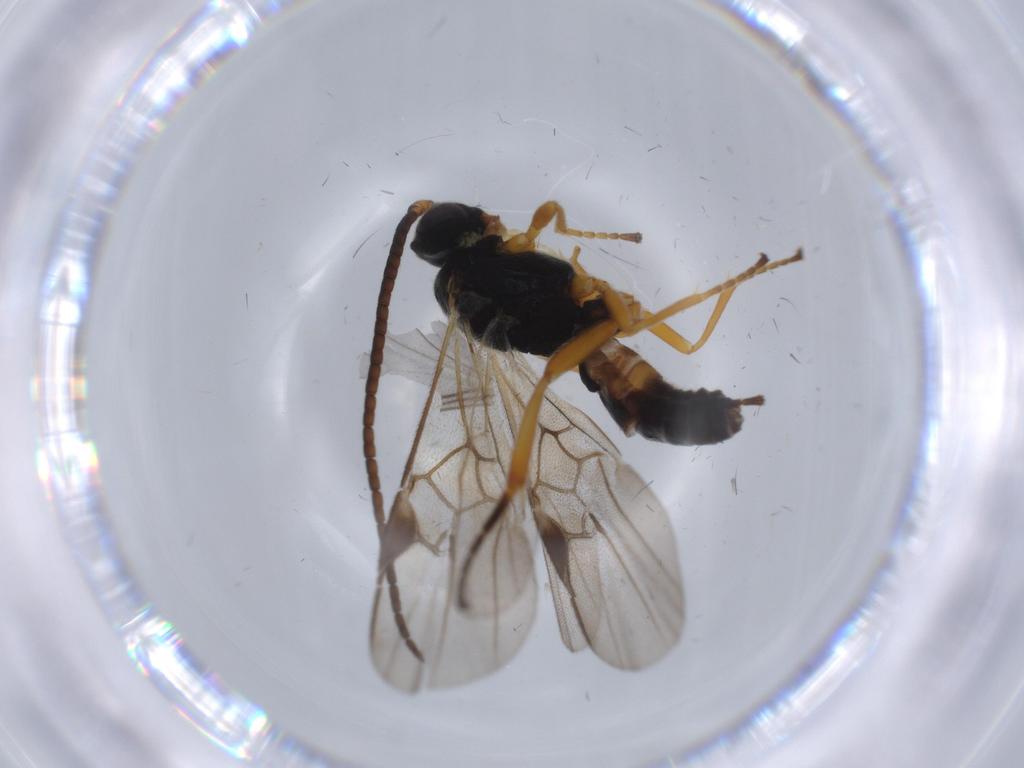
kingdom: Animalia
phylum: Arthropoda
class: Insecta
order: Hymenoptera
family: Braconidae
